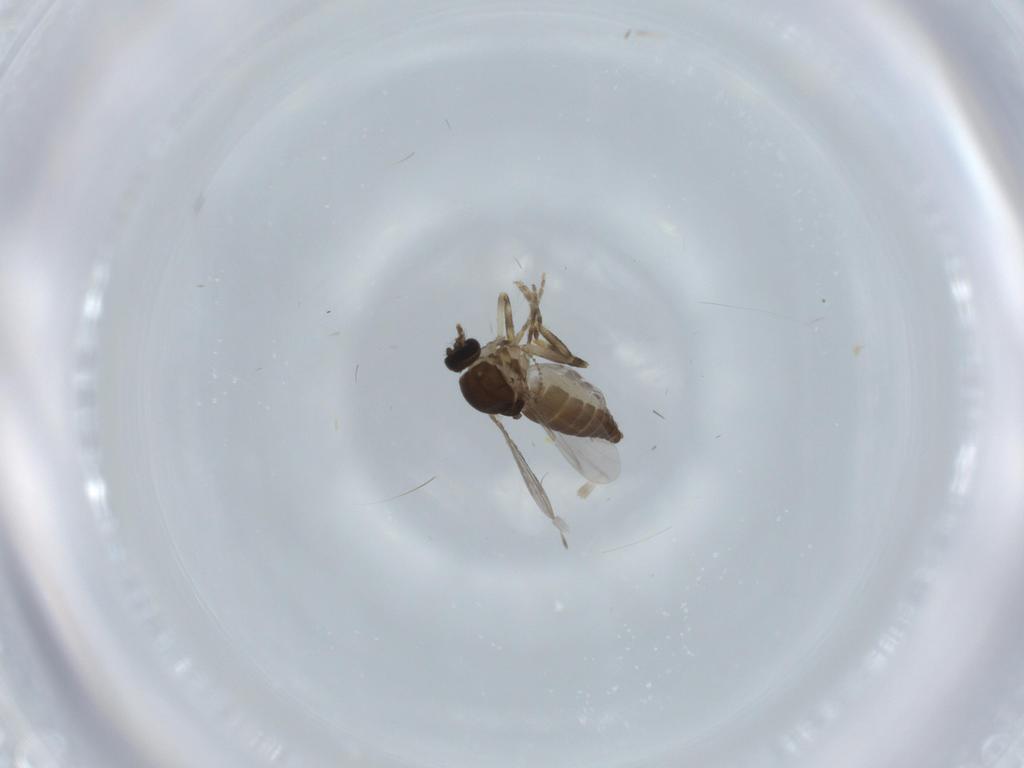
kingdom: Animalia
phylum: Arthropoda
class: Insecta
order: Diptera
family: Ceratopogonidae
